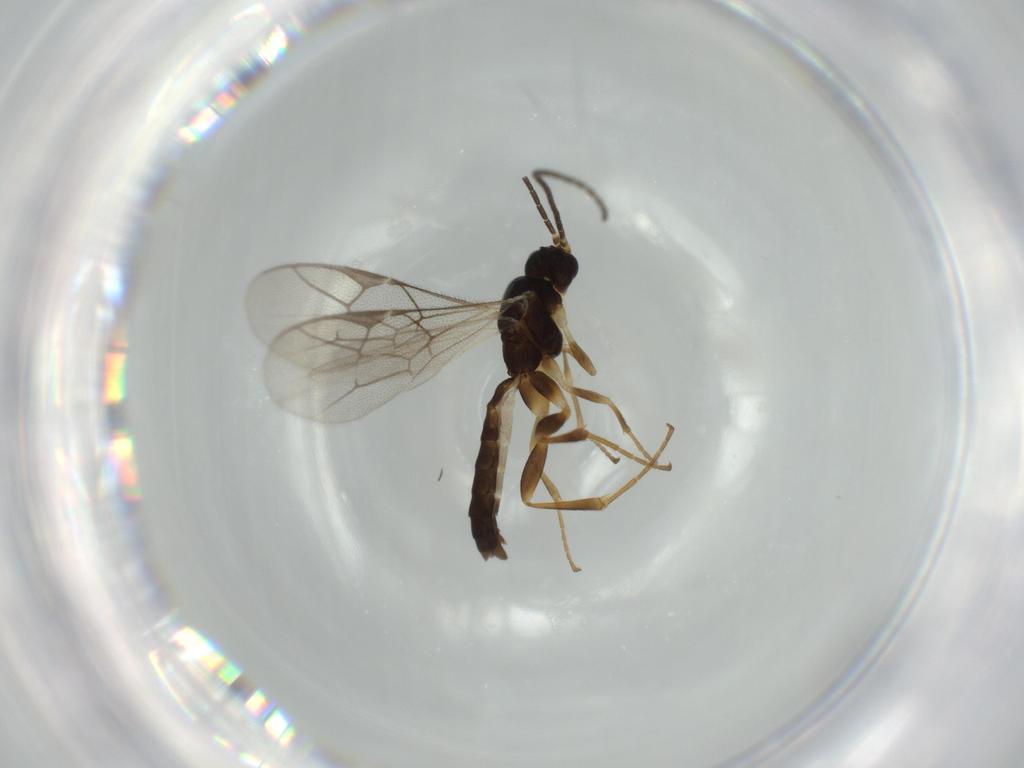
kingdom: Animalia
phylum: Arthropoda
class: Insecta
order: Hymenoptera
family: Ichneumonidae
